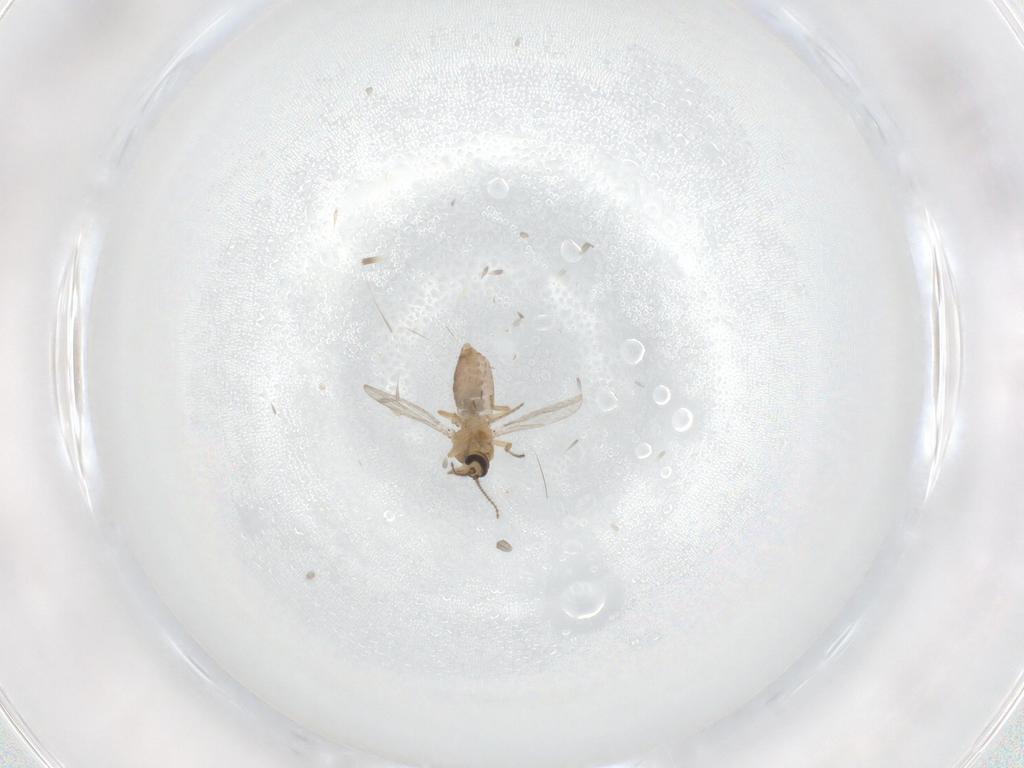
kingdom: Animalia
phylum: Arthropoda
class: Insecta
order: Diptera
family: Ceratopogonidae
